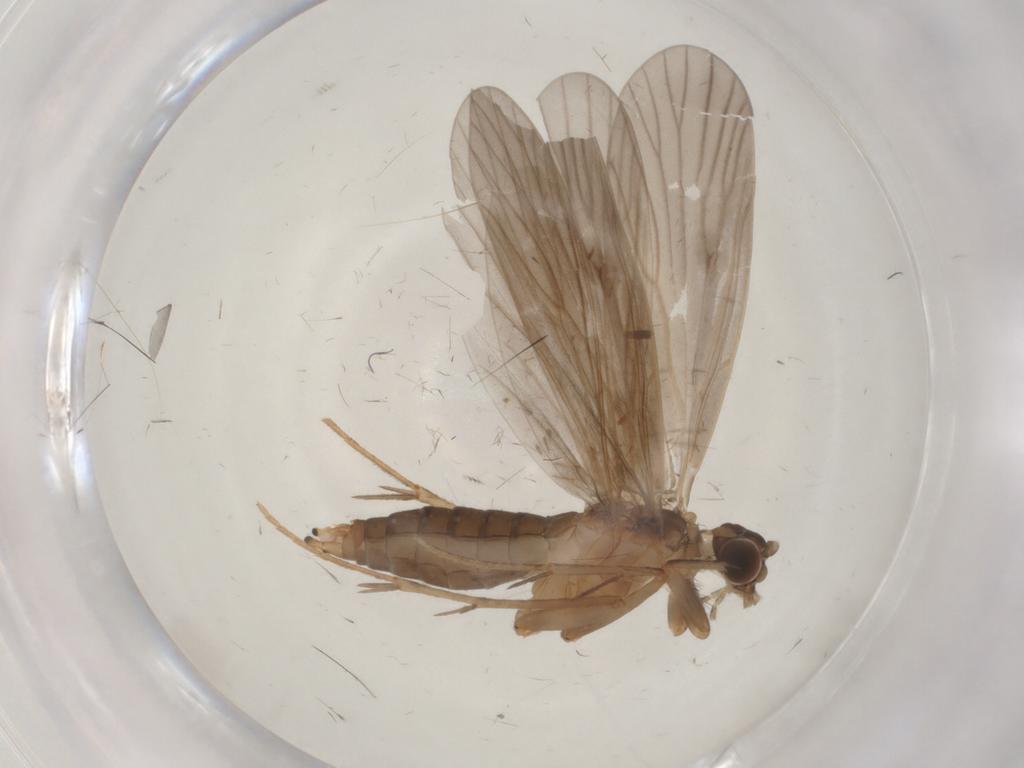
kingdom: Animalia
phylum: Arthropoda
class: Insecta
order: Trichoptera
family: Philopotamidae
